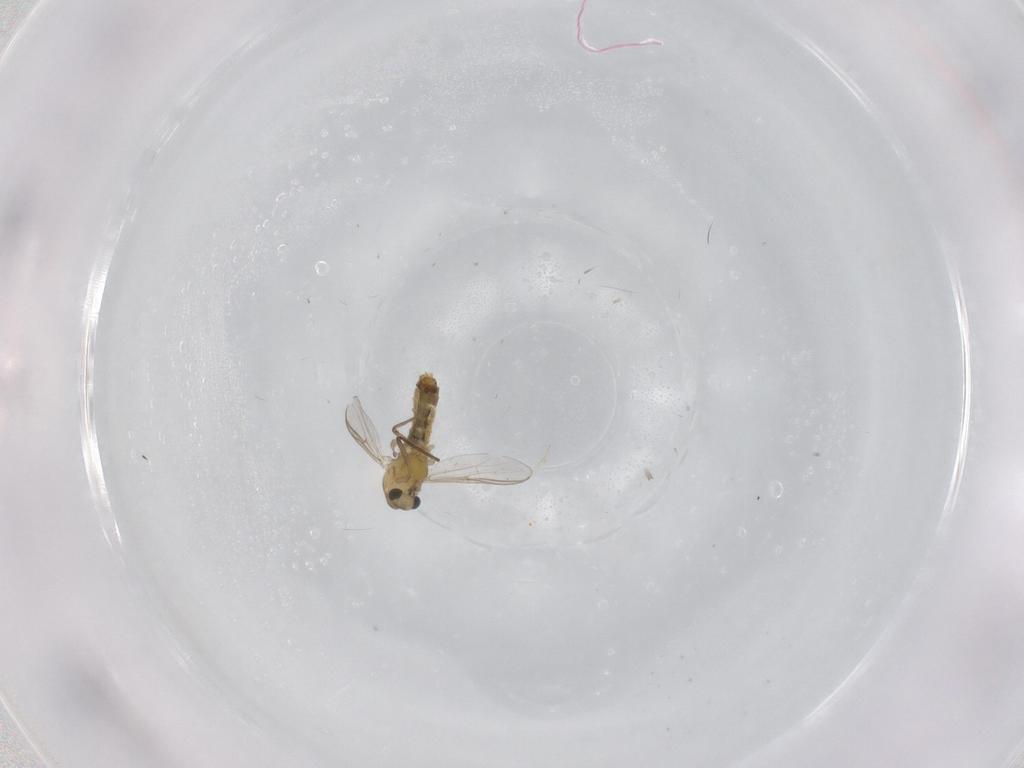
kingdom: Animalia
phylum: Arthropoda
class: Insecta
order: Diptera
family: Chironomidae
